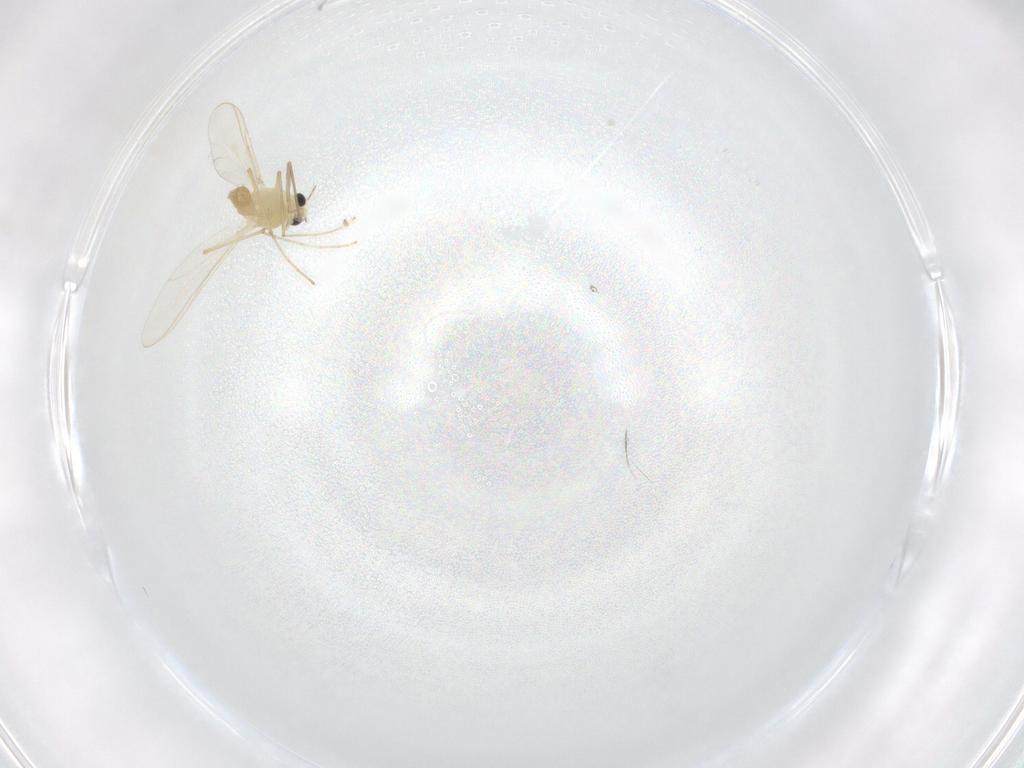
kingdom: Animalia
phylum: Arthropoda
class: Insecta
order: Diptera
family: Chironomidae
